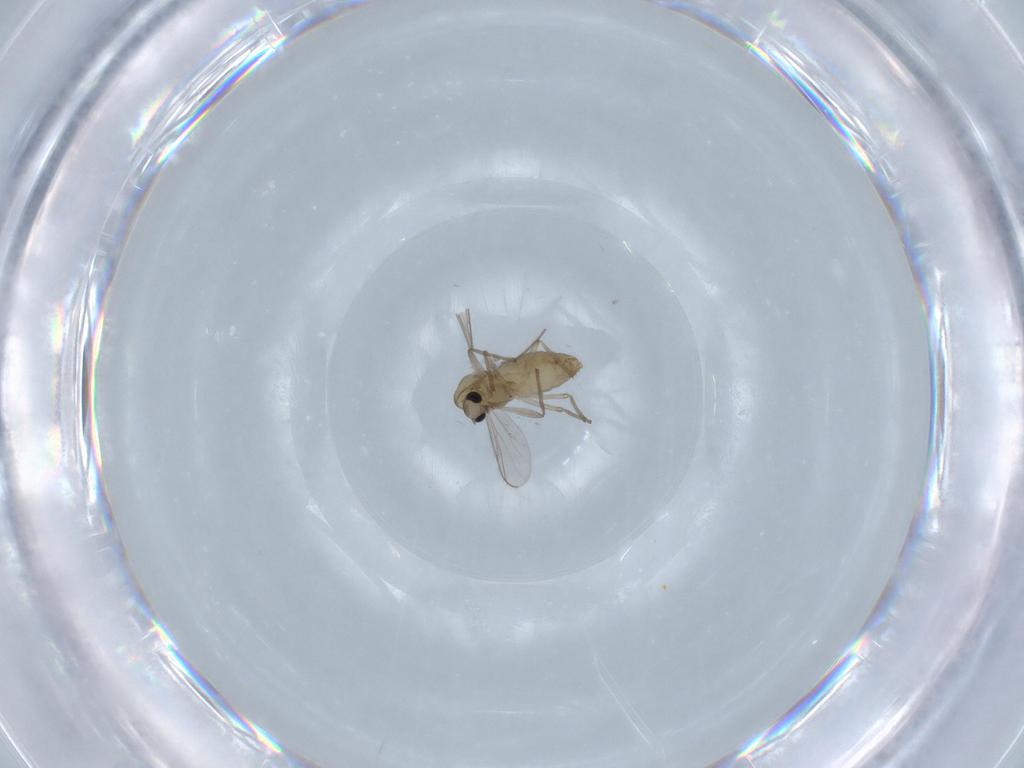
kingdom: Animalia
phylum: Arthropoda
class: Insecta
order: Diptera
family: Chironomidae
